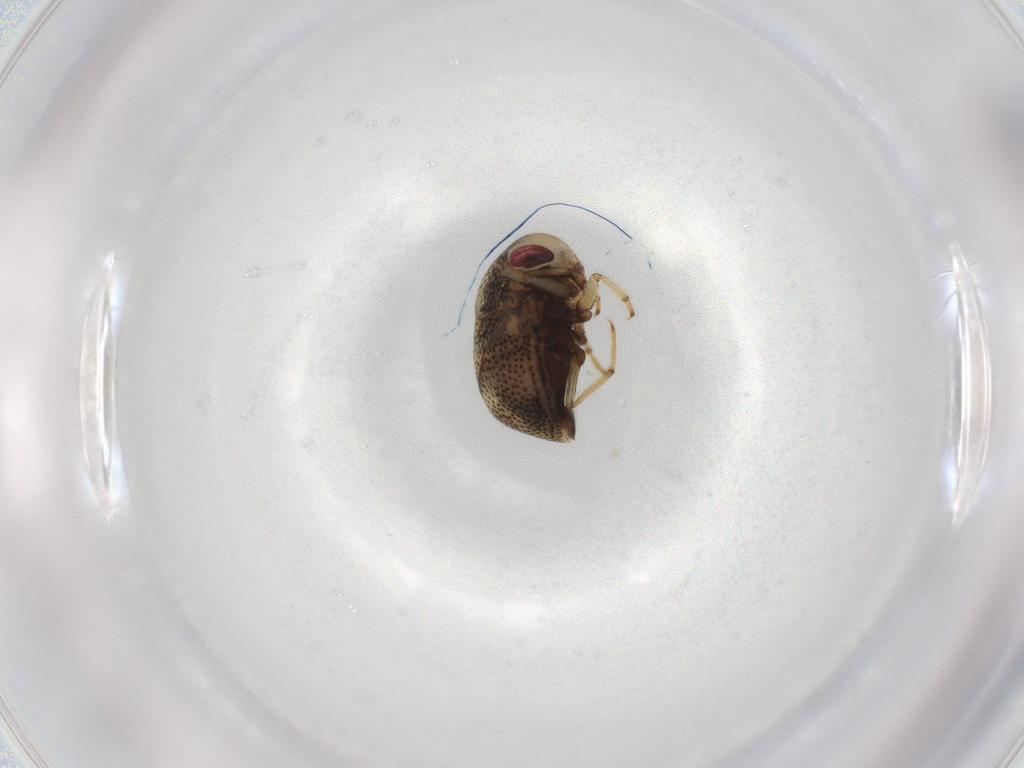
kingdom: Animalia
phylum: Arthropoda
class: Insecta
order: Hemiptera
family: Pleidae
